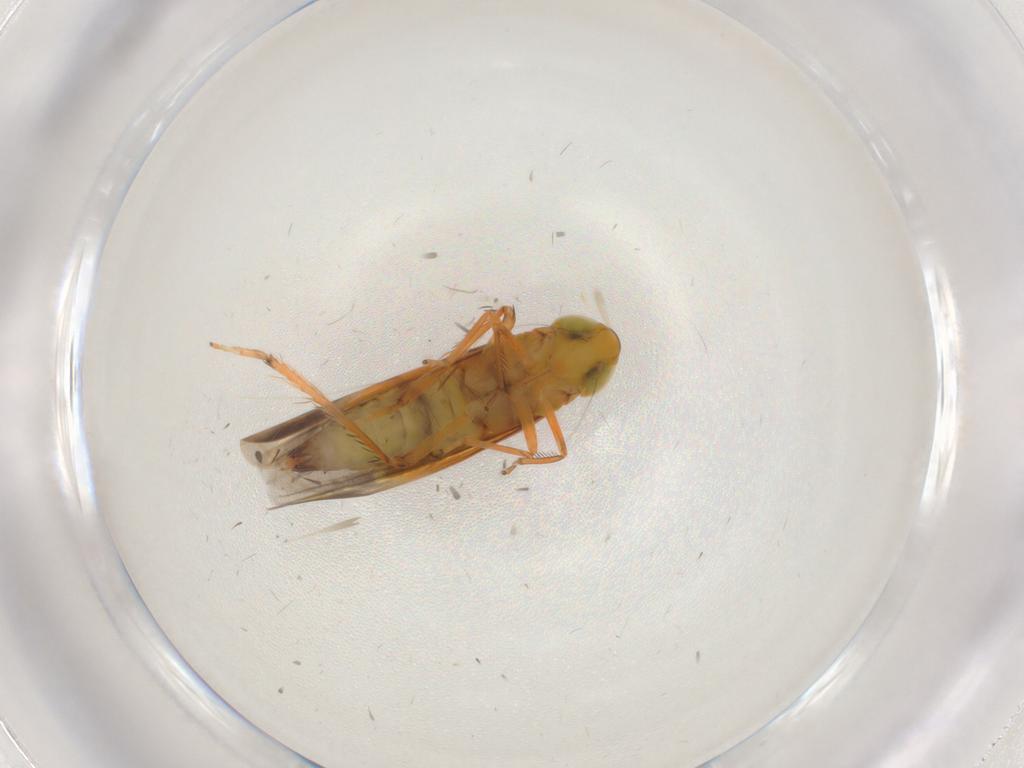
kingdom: Animalia
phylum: Arthropoda
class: Insecta
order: Hemiptera
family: Cicadellidae
